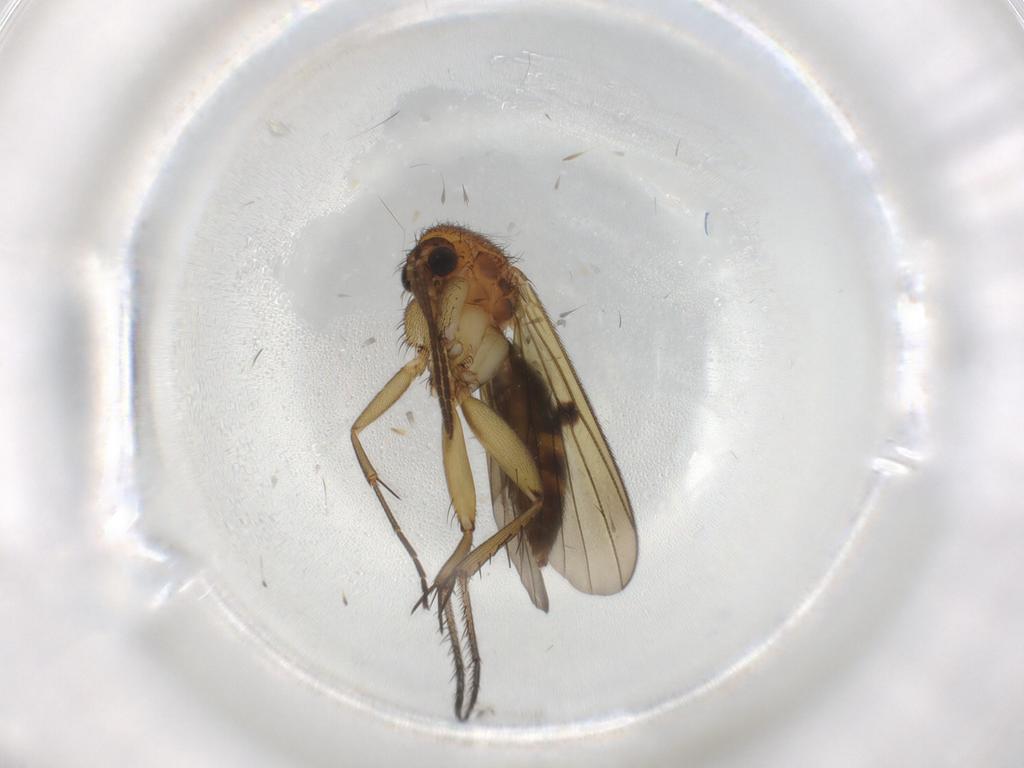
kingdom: Animalia
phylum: Arthropoda
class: Insecta
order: Diptera
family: Phoridae
